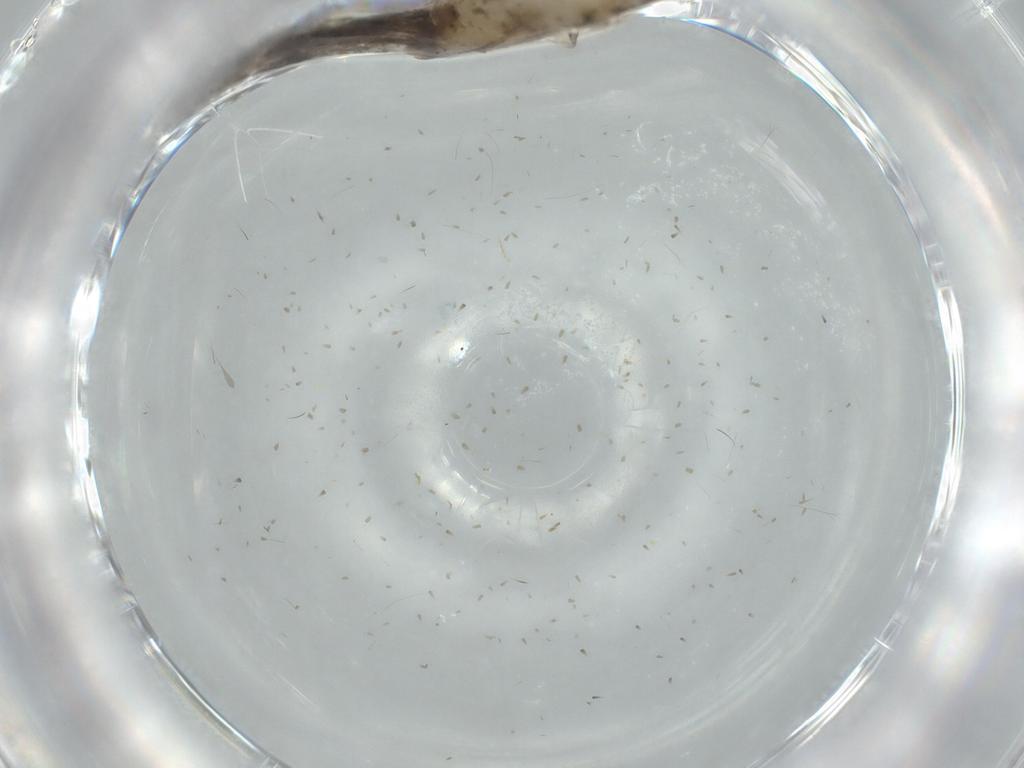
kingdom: Animalia
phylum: Arthropoda
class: Insecta
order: Lepidoptera
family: Meessiidae
